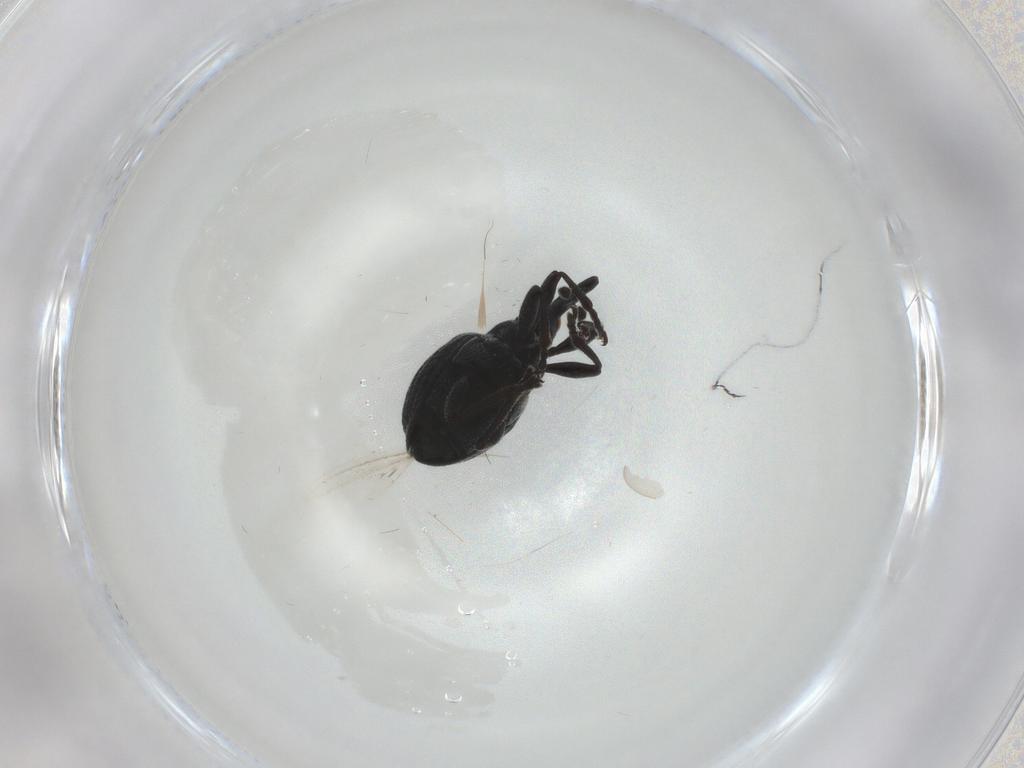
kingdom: Animalia
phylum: Arthropoda
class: Insecta
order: Coleoptera
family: Brentidae
